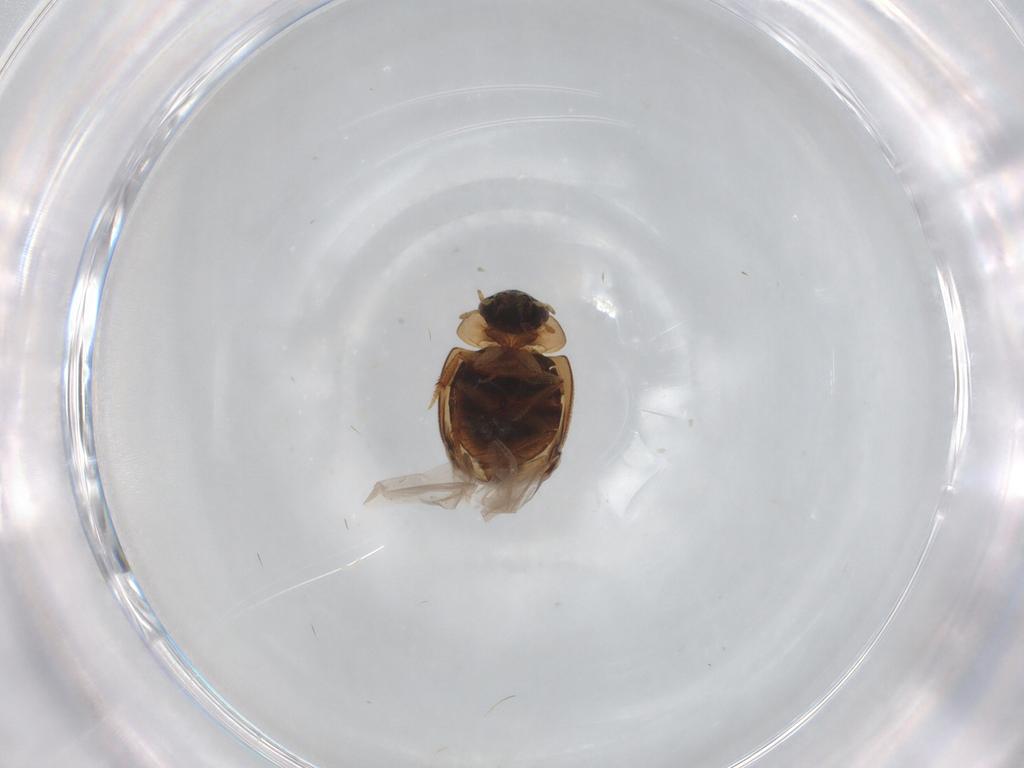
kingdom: Animalia
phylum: Arthropoda
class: Insecta
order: Coleoptera
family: Hydrophilidae
